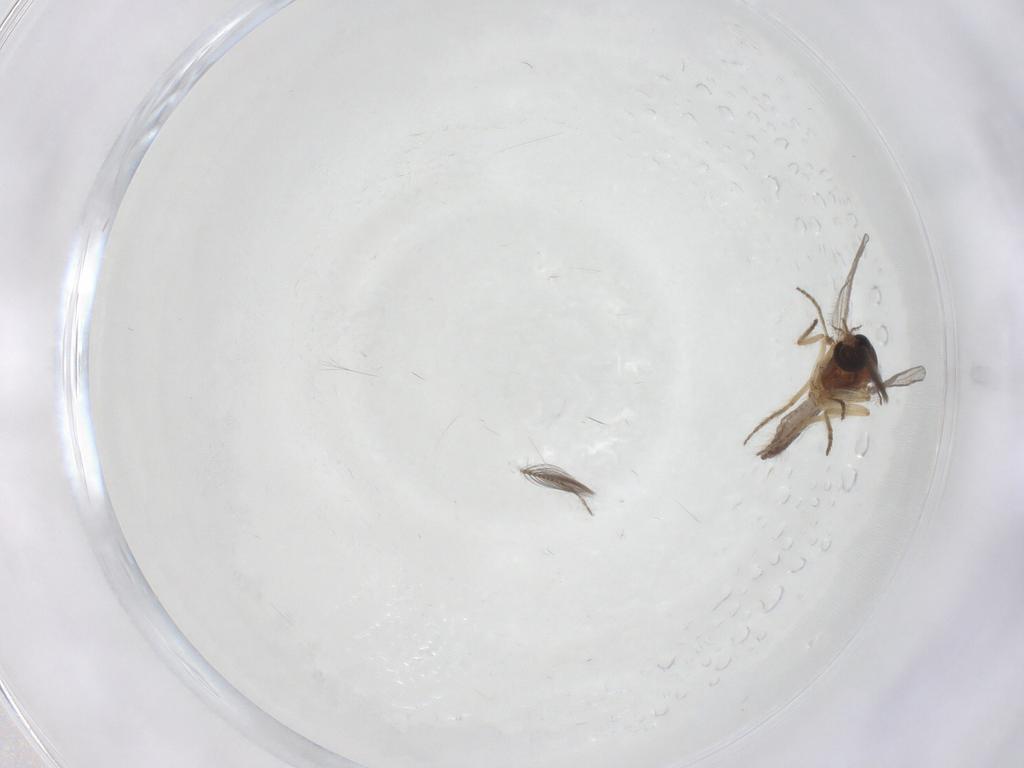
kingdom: Animalia
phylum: Arthropoda
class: Insecta
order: Diptera
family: Ceratopogonidae
